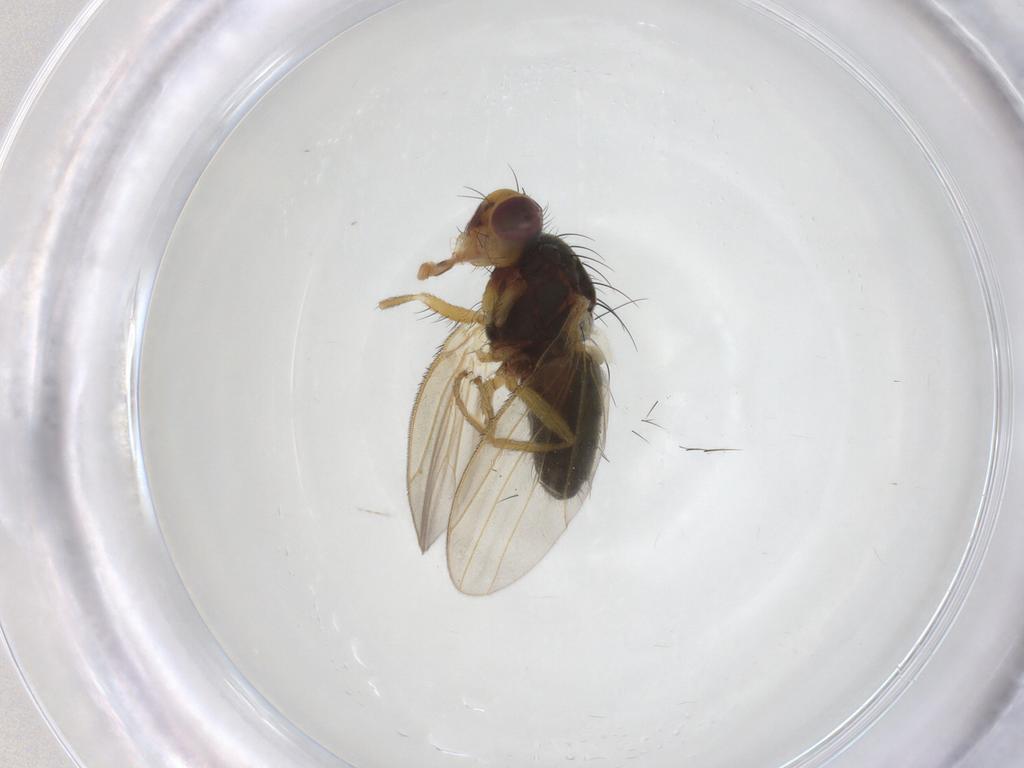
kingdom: Animalia
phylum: Arthropoda
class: Insecta
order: Diptera
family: Heleomyzidae
